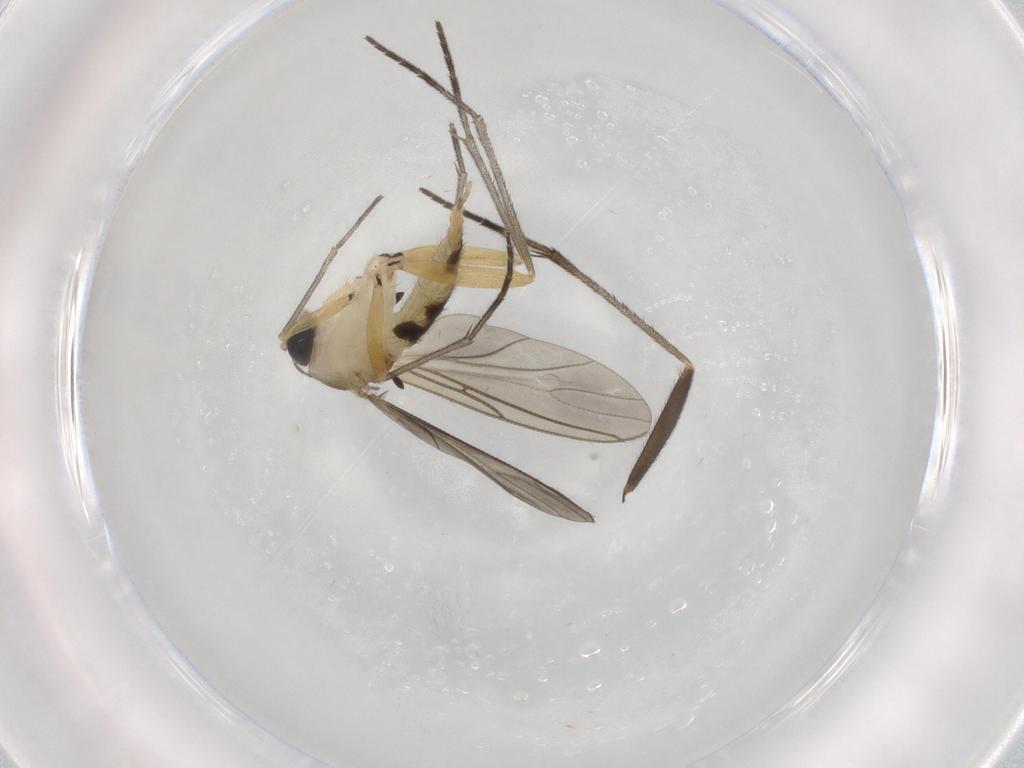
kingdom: Animalia
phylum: Arthropoda
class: Insecta
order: Diptera
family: Sciaridae
